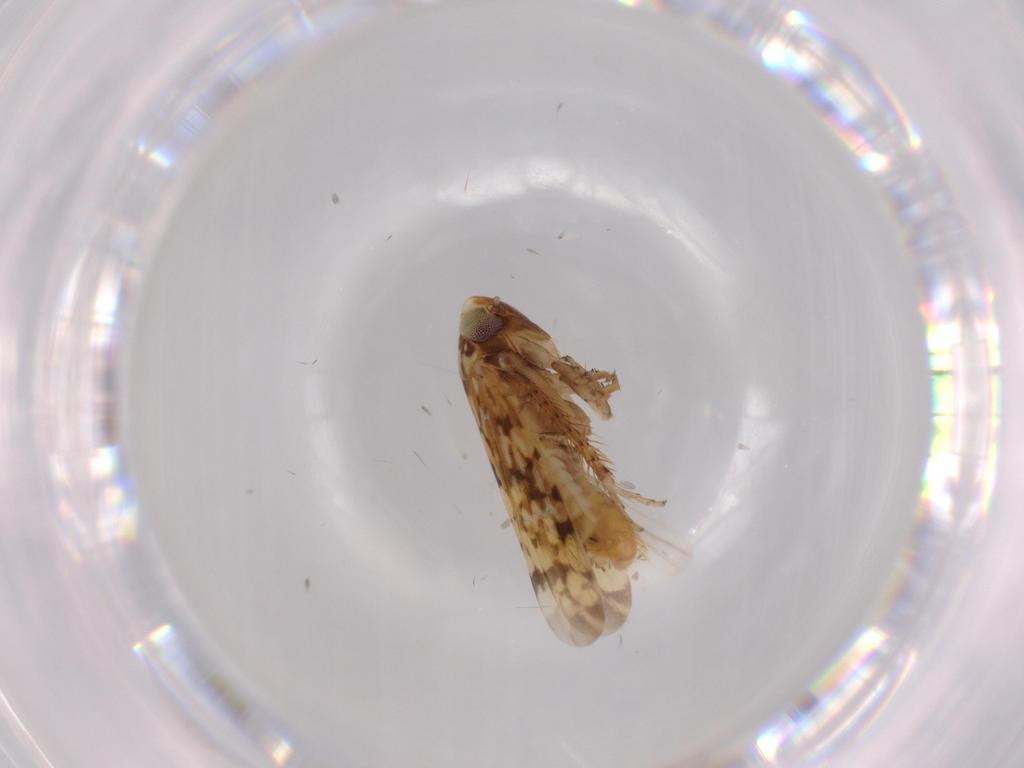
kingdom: Animalia
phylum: Arthropoda
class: Insecta
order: Hemiptera
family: Cicadellidae
